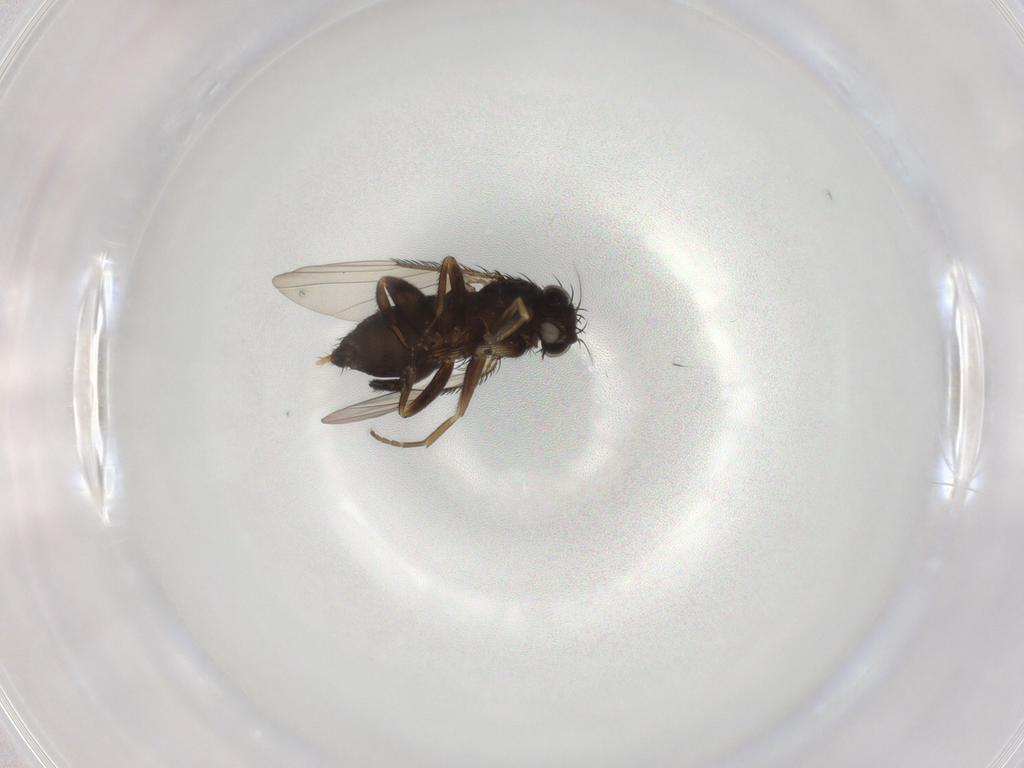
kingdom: Animalia
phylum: Arthropoda
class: Insecta
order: Diptera
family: Phoridae
